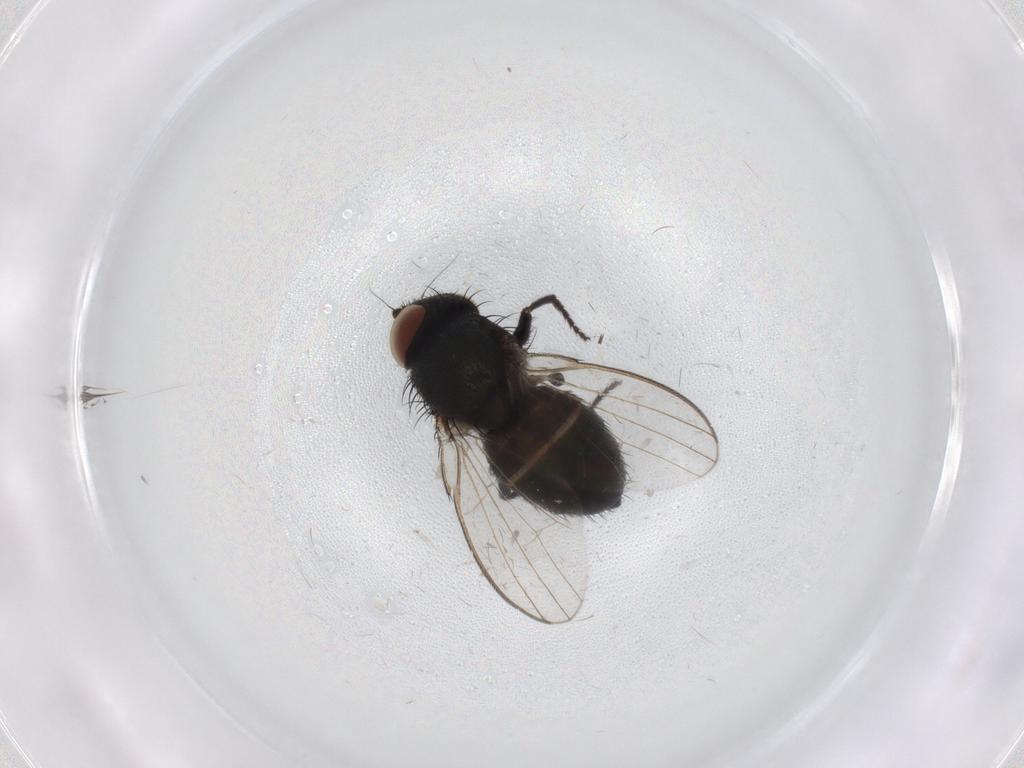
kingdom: Animalia
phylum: Arthropoda
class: Insecta
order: Diptera
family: Milichiidae
